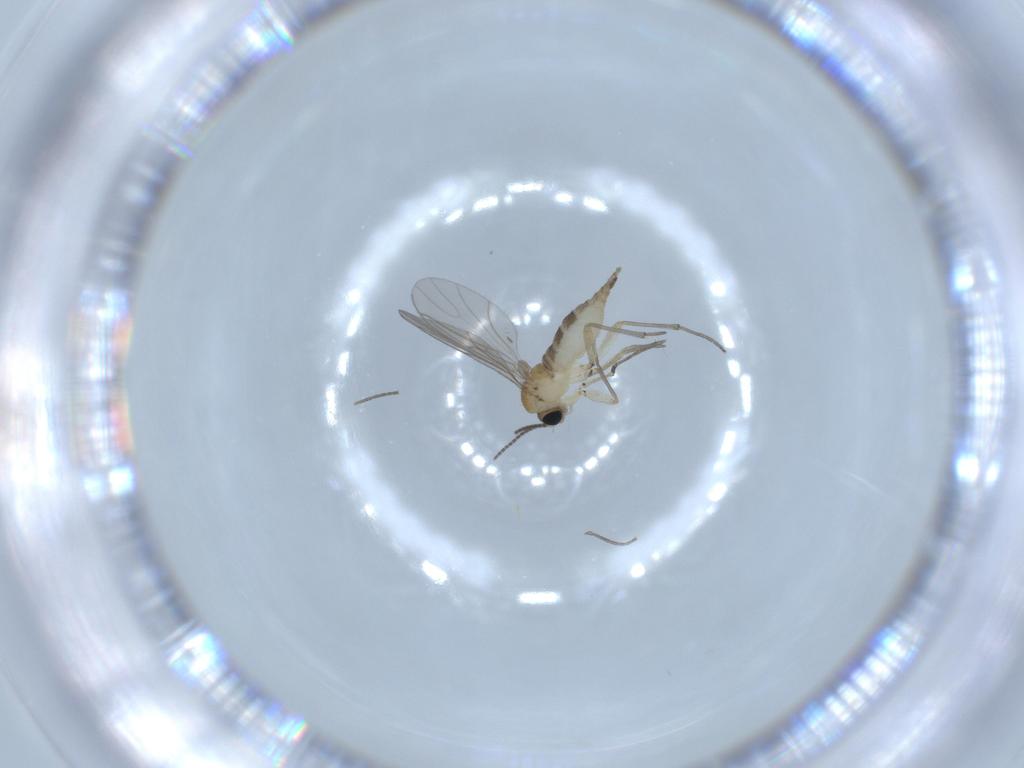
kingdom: Animalia
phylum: Arthropoda
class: Insecta
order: Diptera
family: Sciaridae
